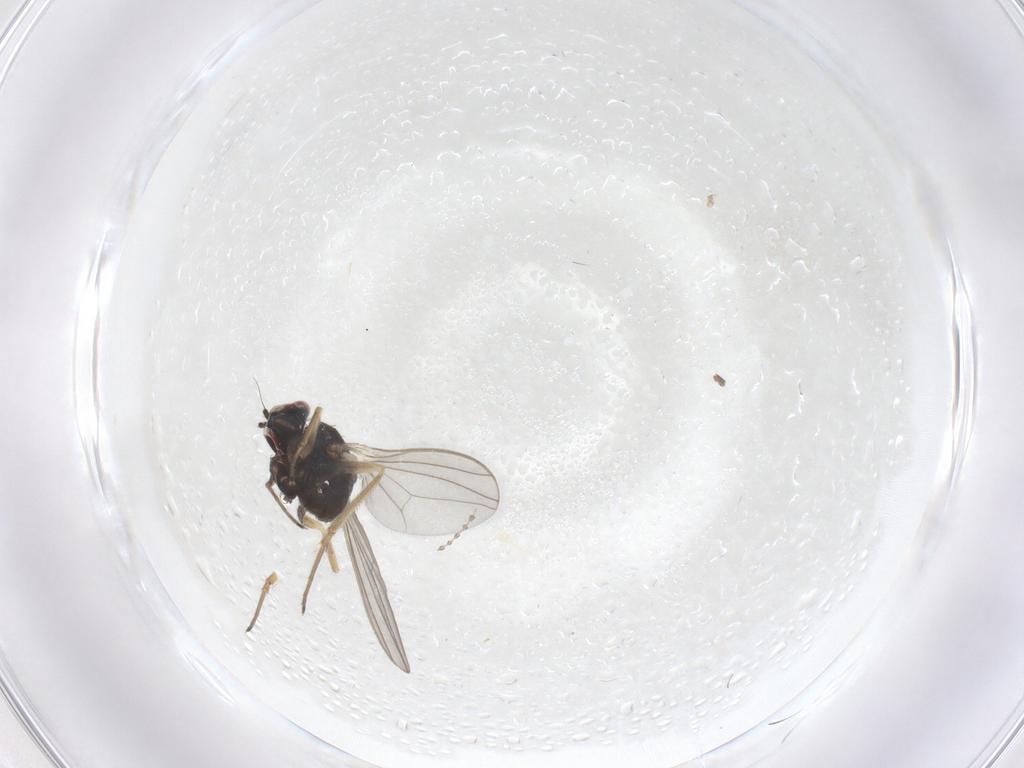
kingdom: Animalia
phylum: Arthropoda
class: Insecta
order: Diptera
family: Dolichopodidae
